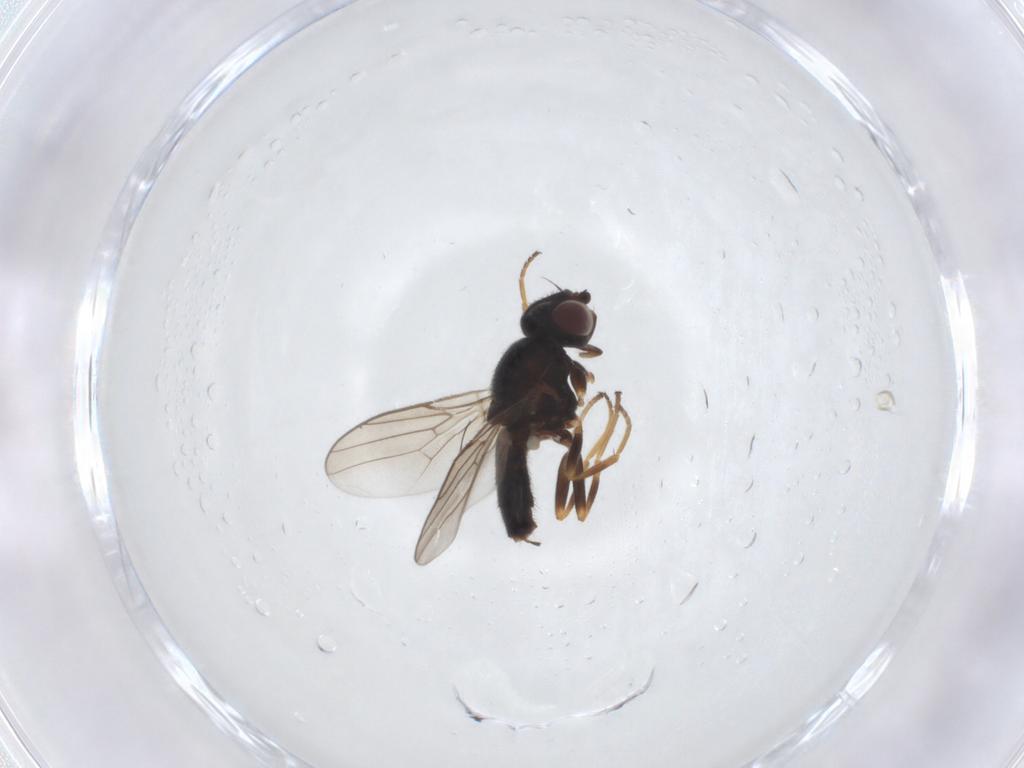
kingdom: Animalia
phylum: Arthropoda
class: Insecta
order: Diptera
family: Chloropidae
